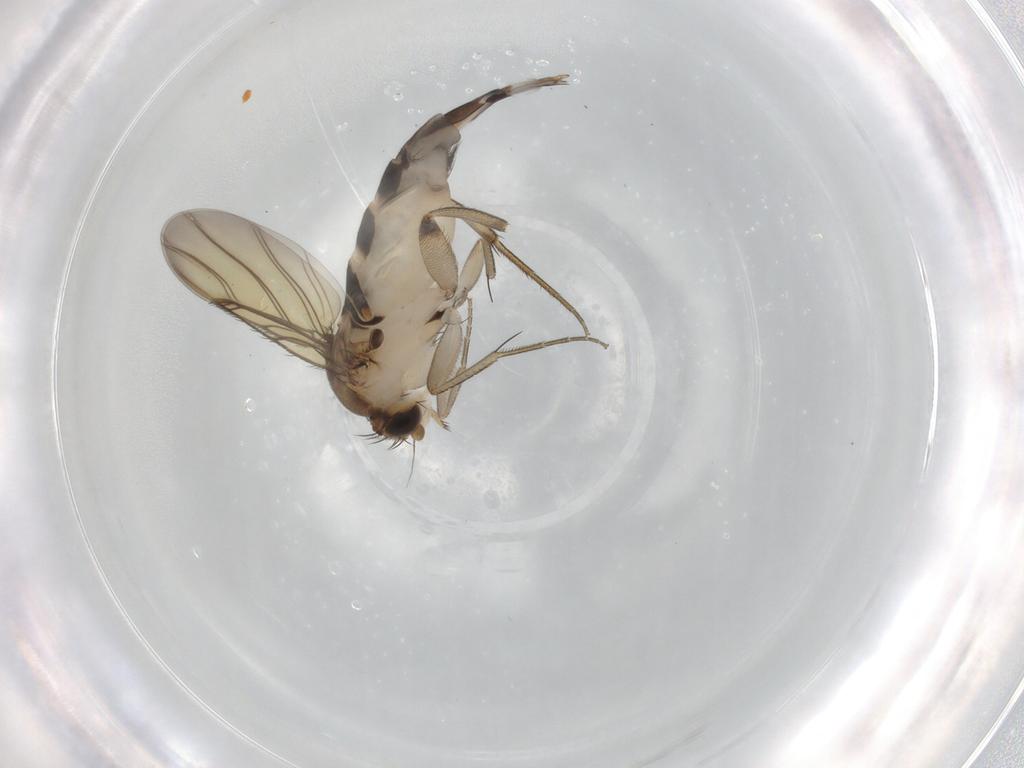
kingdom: Animalia
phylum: Arthropoda
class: Insecta
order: Diptera
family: Phoridae
